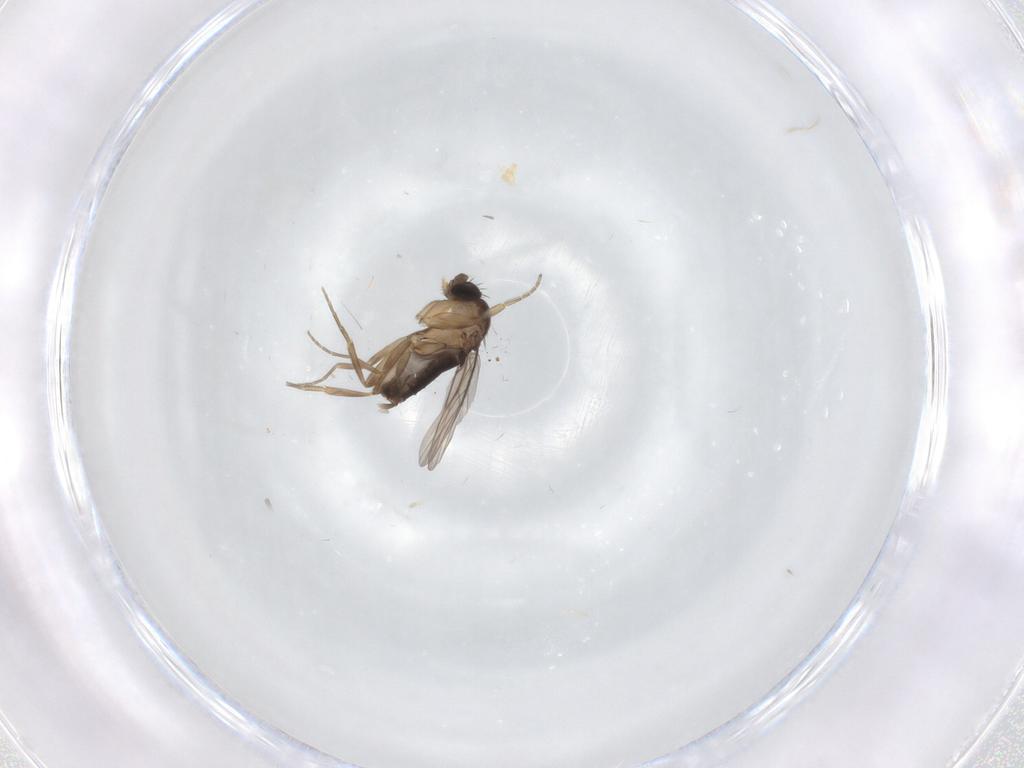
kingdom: Animalia
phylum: Arthropoda
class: Insecta
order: Diptera
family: Phoridae
